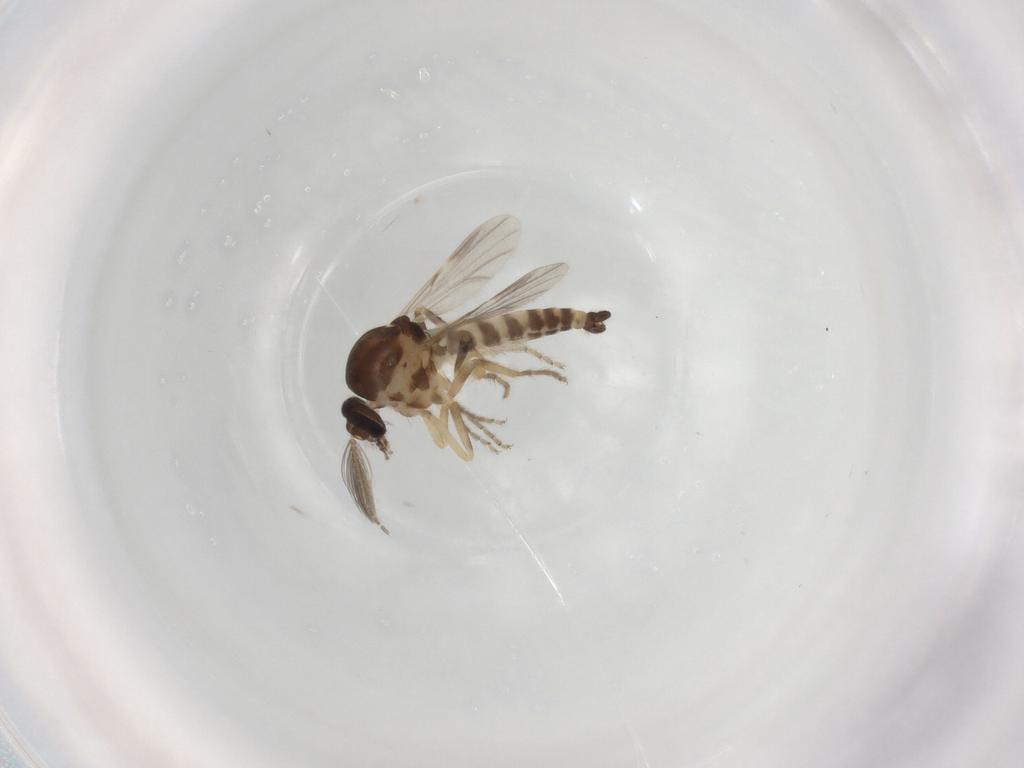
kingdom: Animalia
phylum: Arthropoda
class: Insecta
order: Diptera
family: Ceratopogonidae
